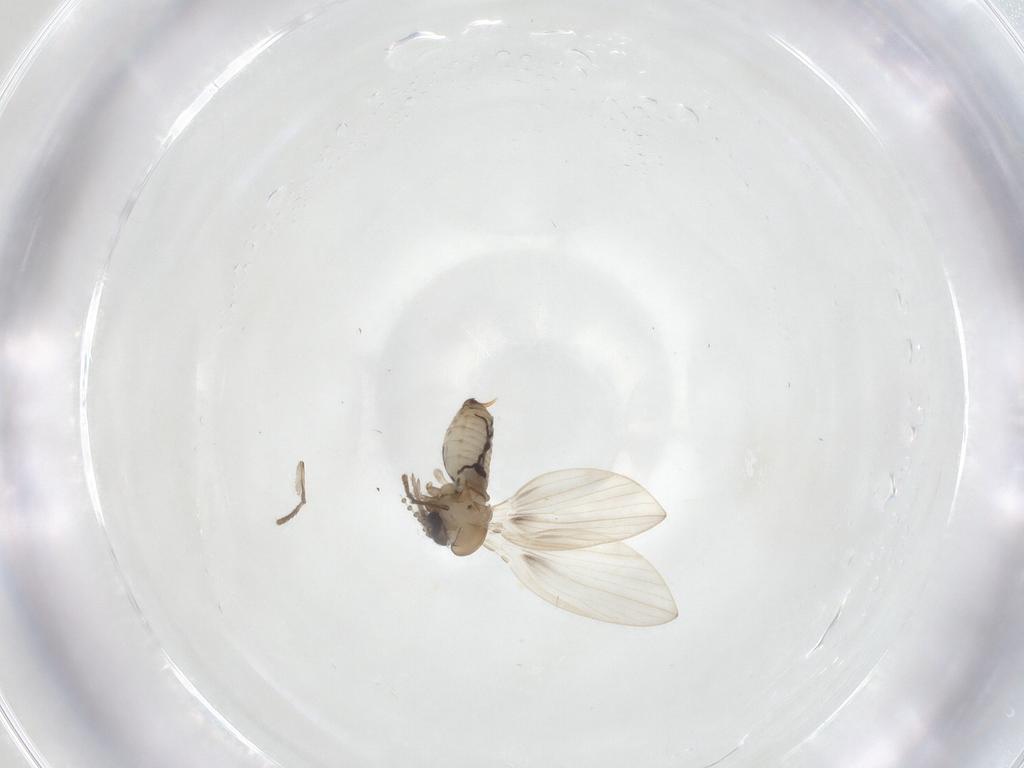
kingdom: Animalia
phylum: Arthropoda
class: Insecta
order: Diptera
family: Psychodidae
